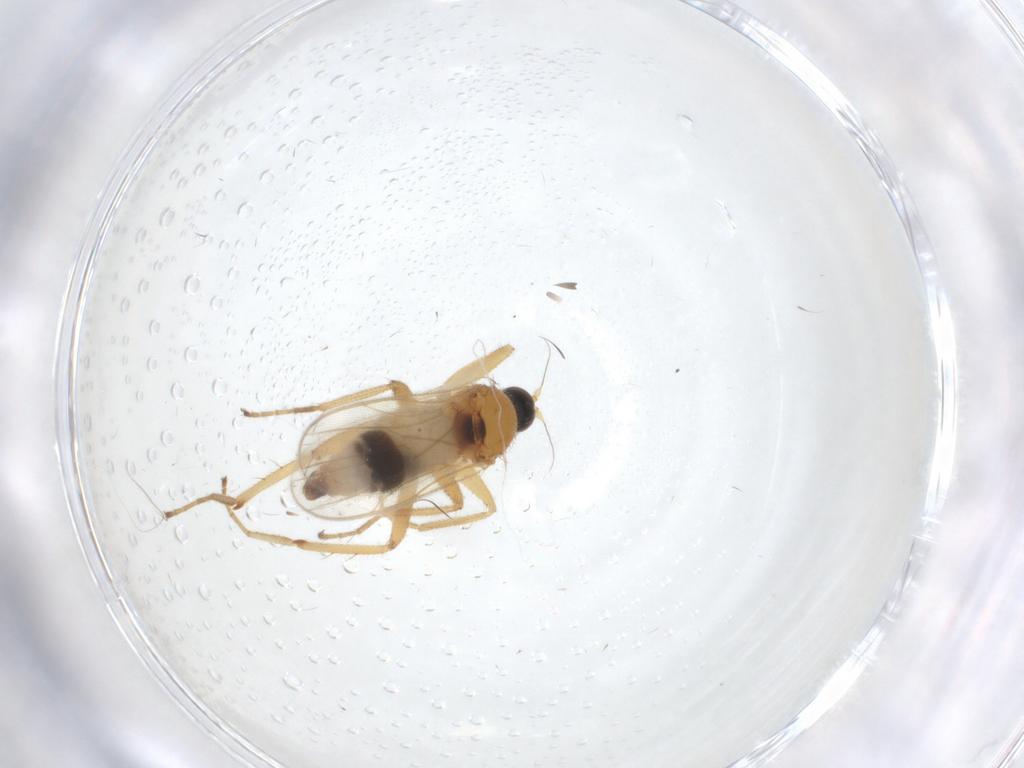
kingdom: Animalia
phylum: Arthropoda
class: Insecta
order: Diptera
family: Hybotidae
